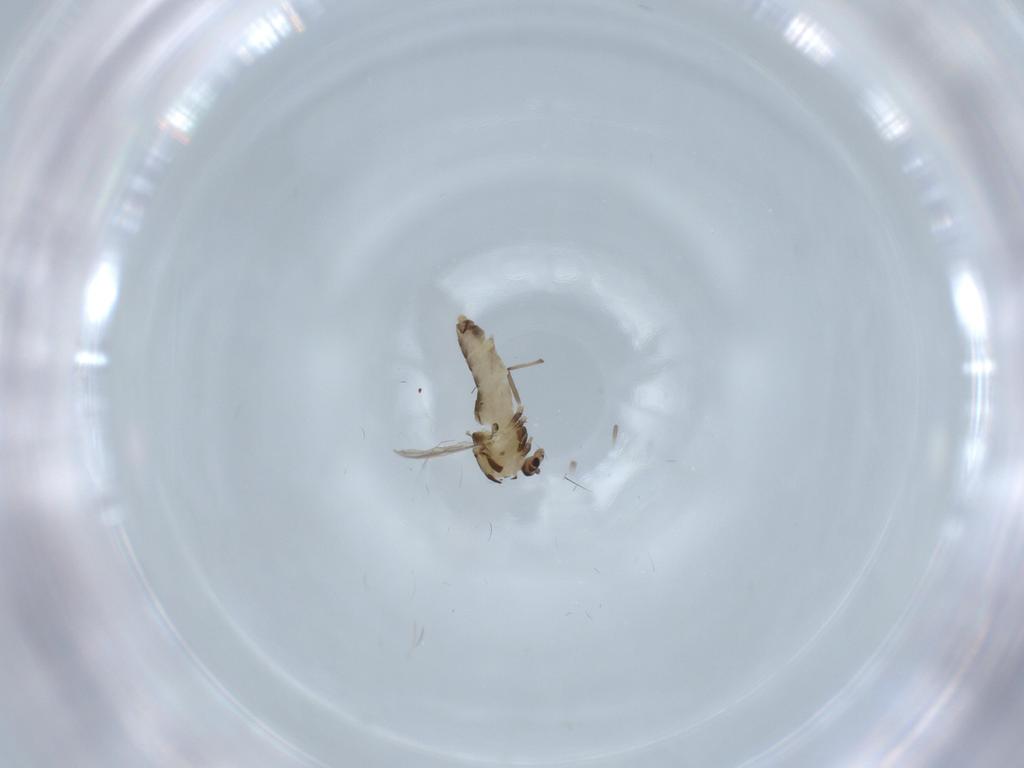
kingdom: Animalia
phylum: Arthropoda
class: Insecta
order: Diptera
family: Chironomidae
